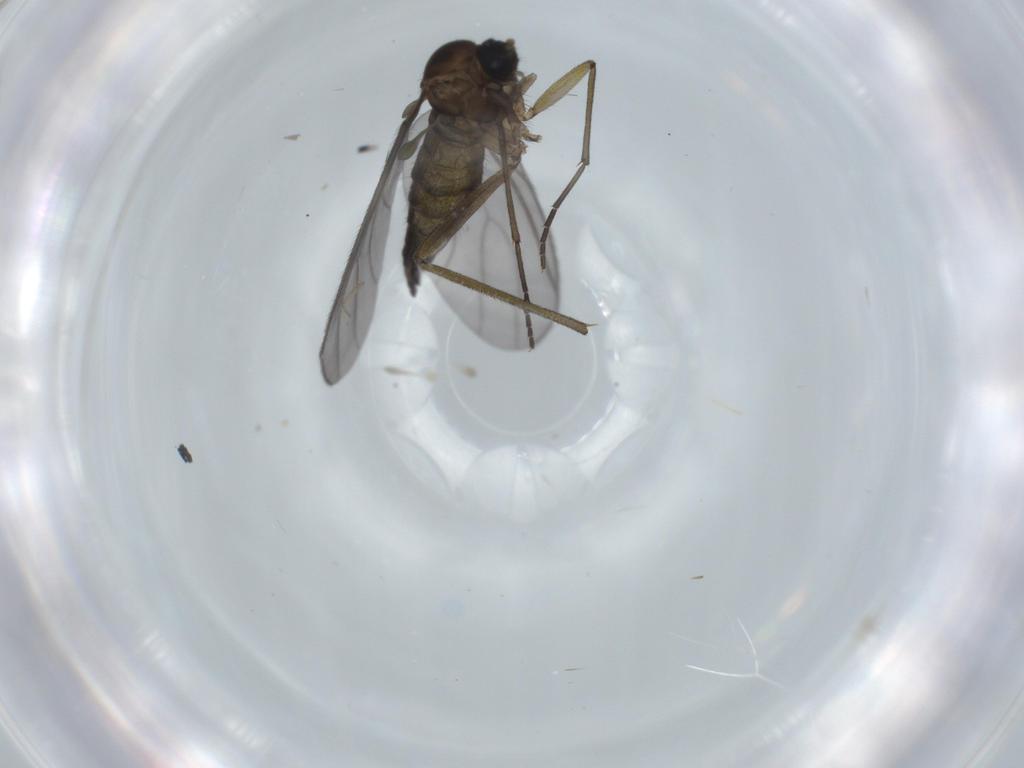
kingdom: Animalia
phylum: Arthropoda
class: Insecta
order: Diptera
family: Sciaridae
